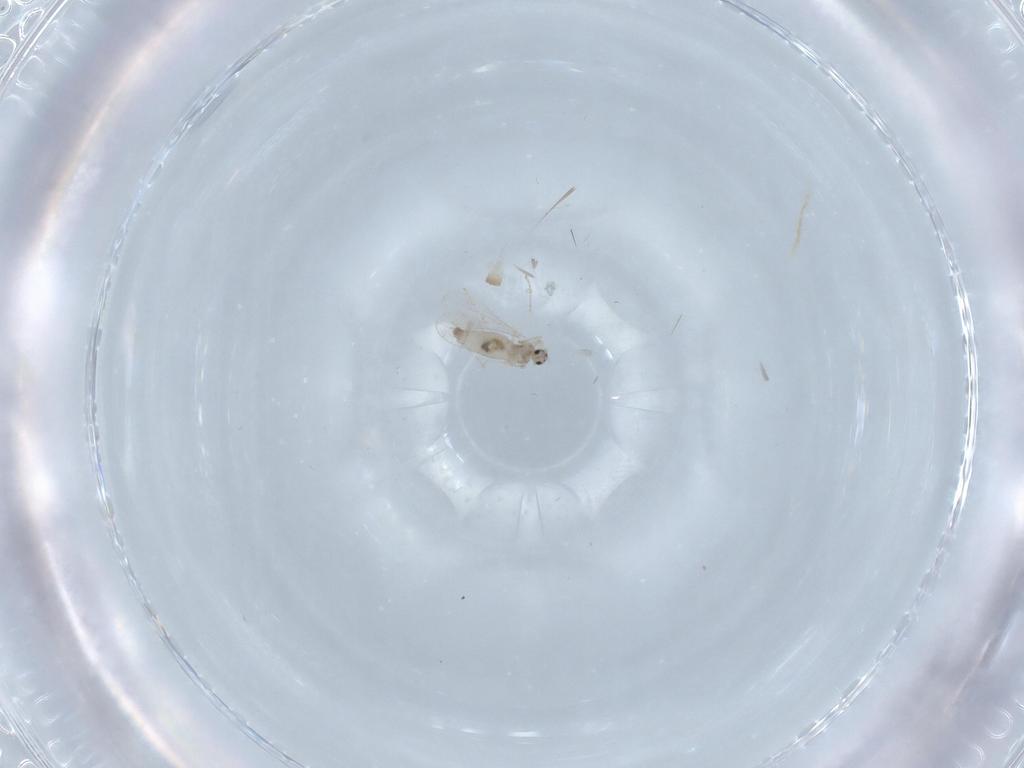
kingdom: Animalia
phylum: Arthropoda
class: Insecta
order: Diptera
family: Cecidomyiidae
